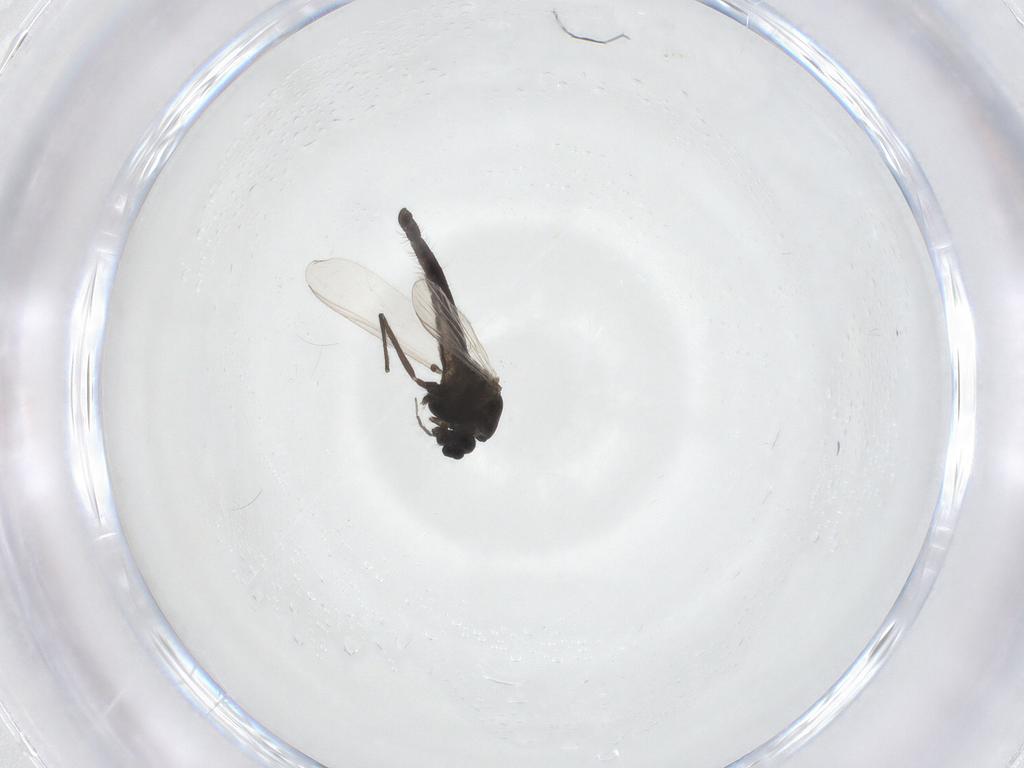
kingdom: Animalia
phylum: Arthropoda
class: Insecta
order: Diptera
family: Chironomidae
